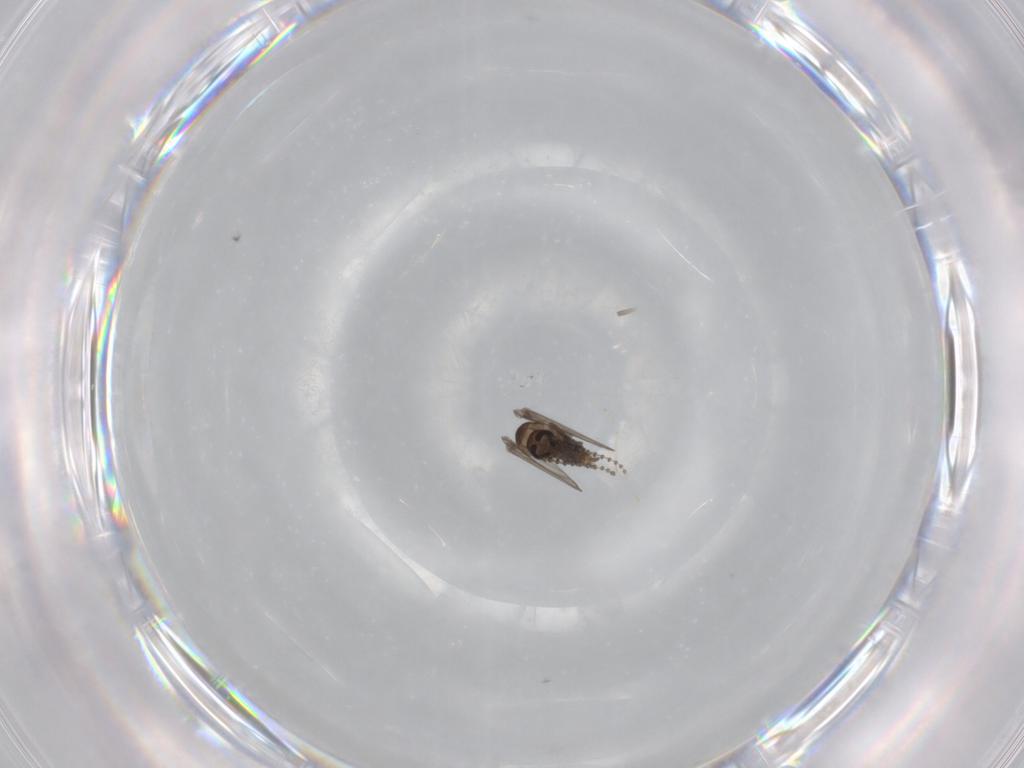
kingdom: Animalia
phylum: Arthropoda
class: Insecta
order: Diptera
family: Psychodidae
